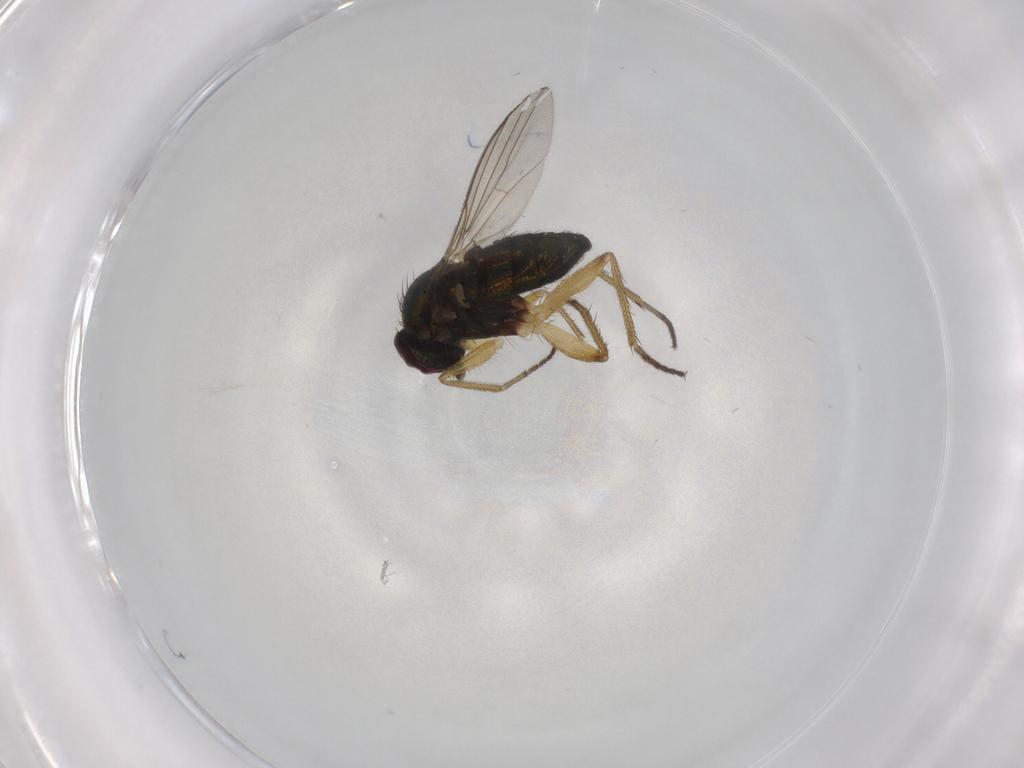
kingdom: Animalia
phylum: Arthropoda
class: Insecta
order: Diptera
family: Dolichopodidae
